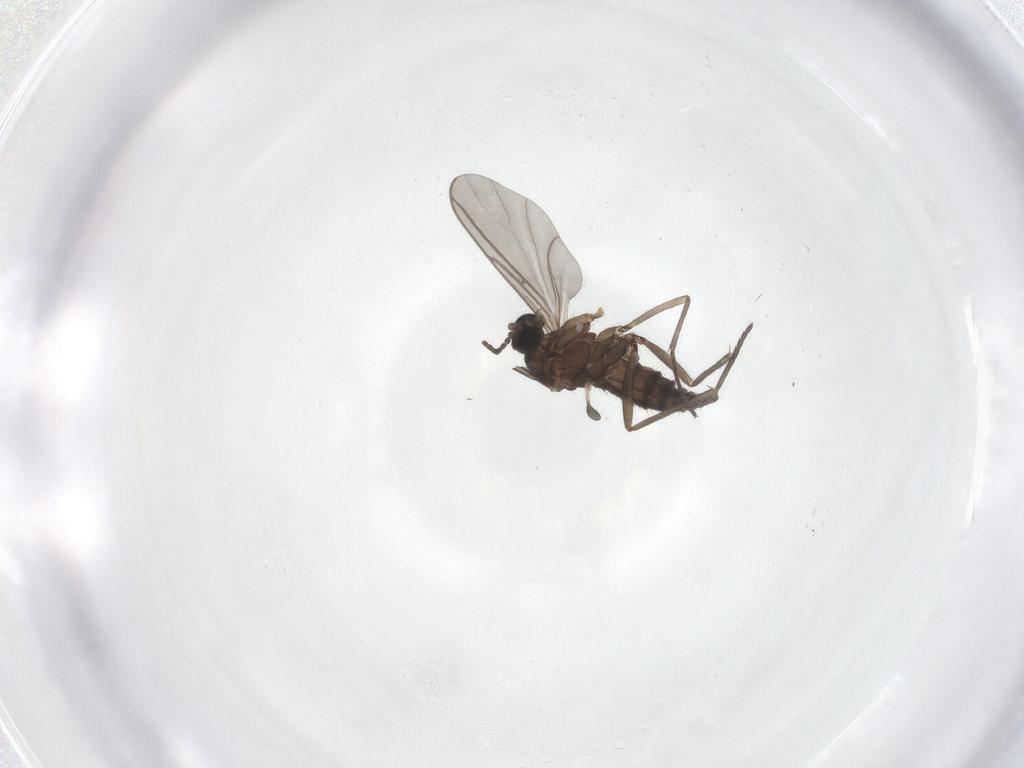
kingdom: Animalia
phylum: Arthropoda
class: Insecta
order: Diptera
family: Sciaridae
